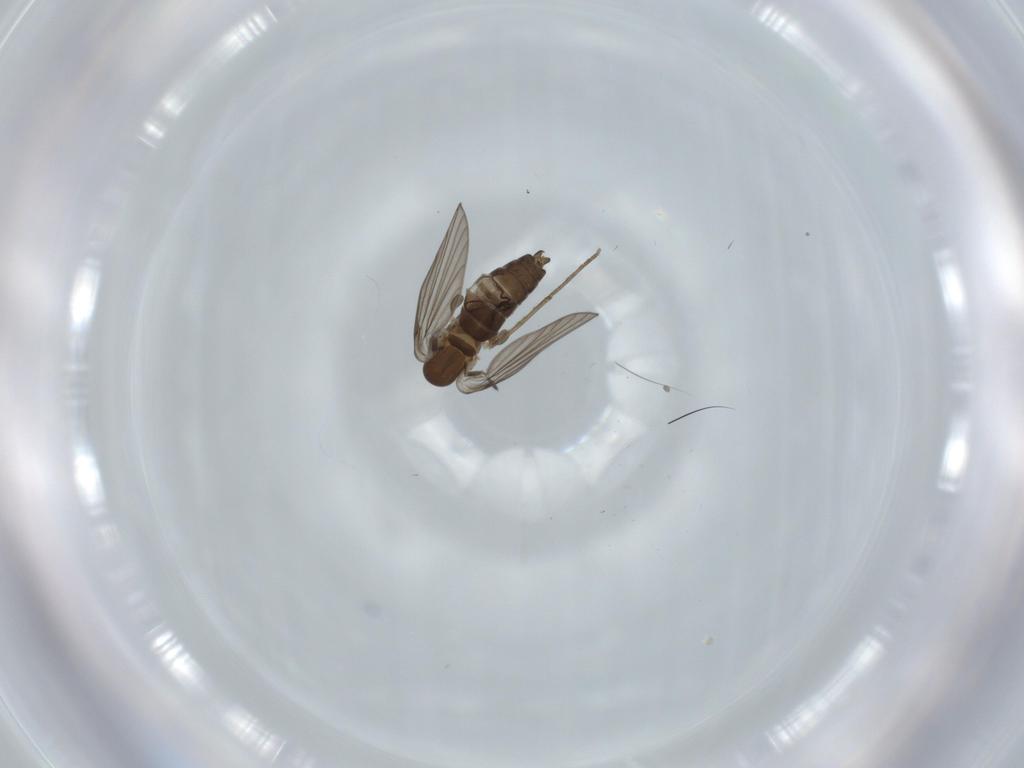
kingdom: Animalia
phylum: Arthropoda
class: Insecta
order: Diptera
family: Psychodidae
